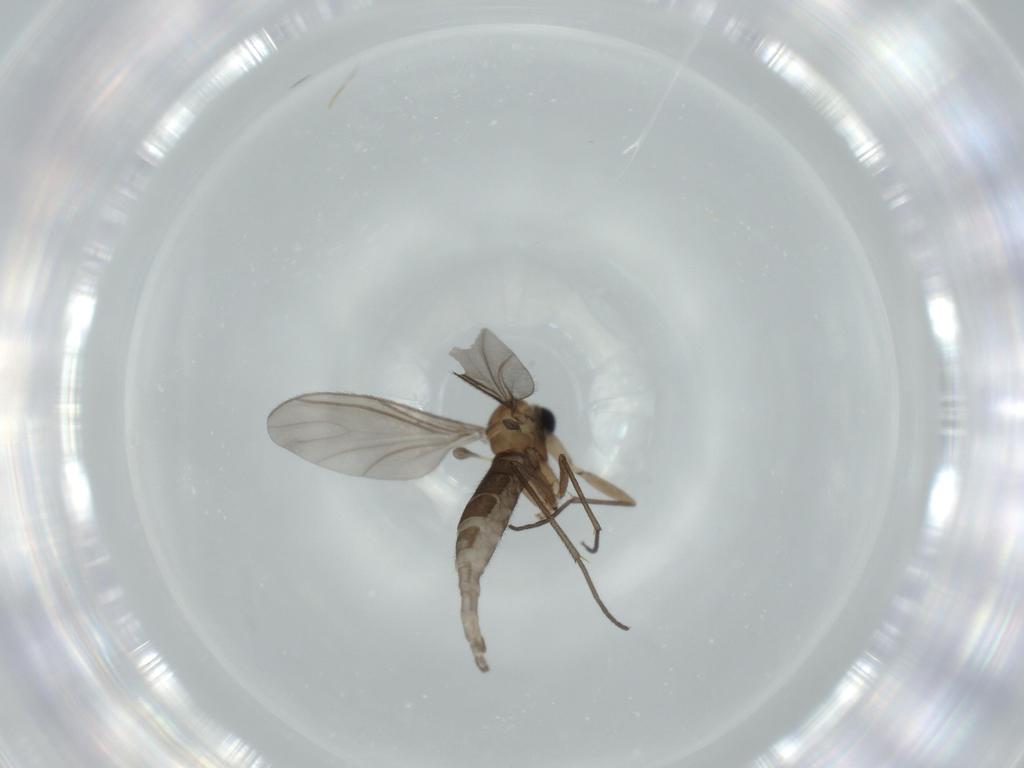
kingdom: Animalia
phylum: Arthropoda
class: Insecta
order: Diptera
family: Sciaridae
